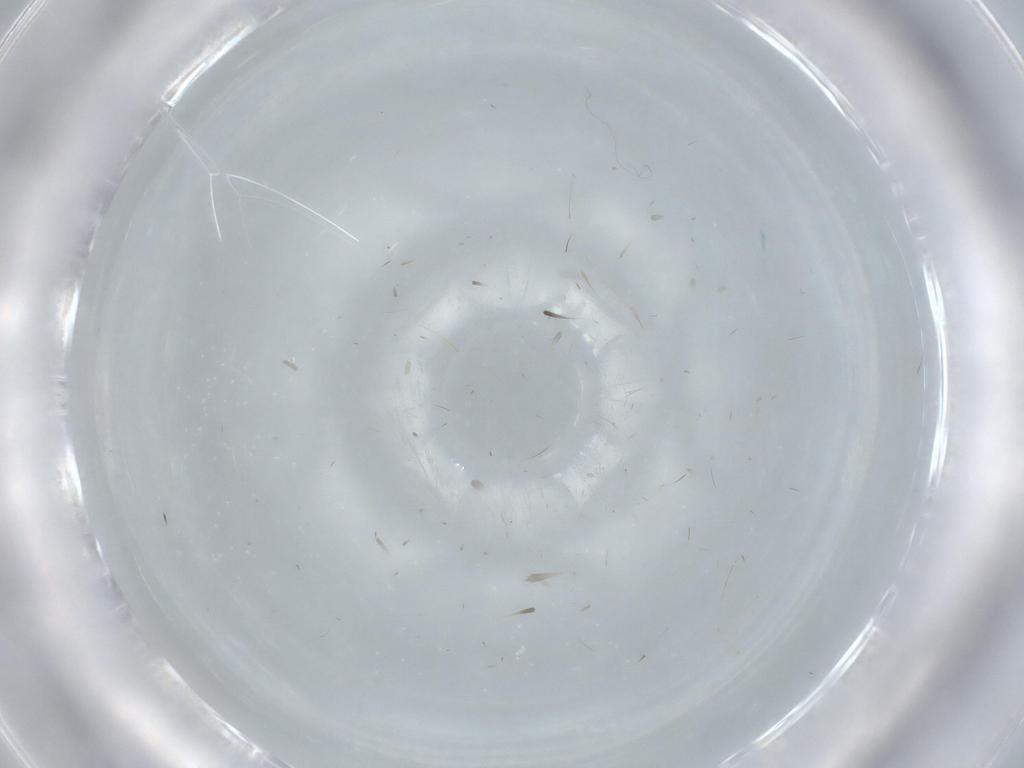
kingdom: Animalia
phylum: Arthropoda
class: Insecta
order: Diptera
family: Cecidomyiidae
